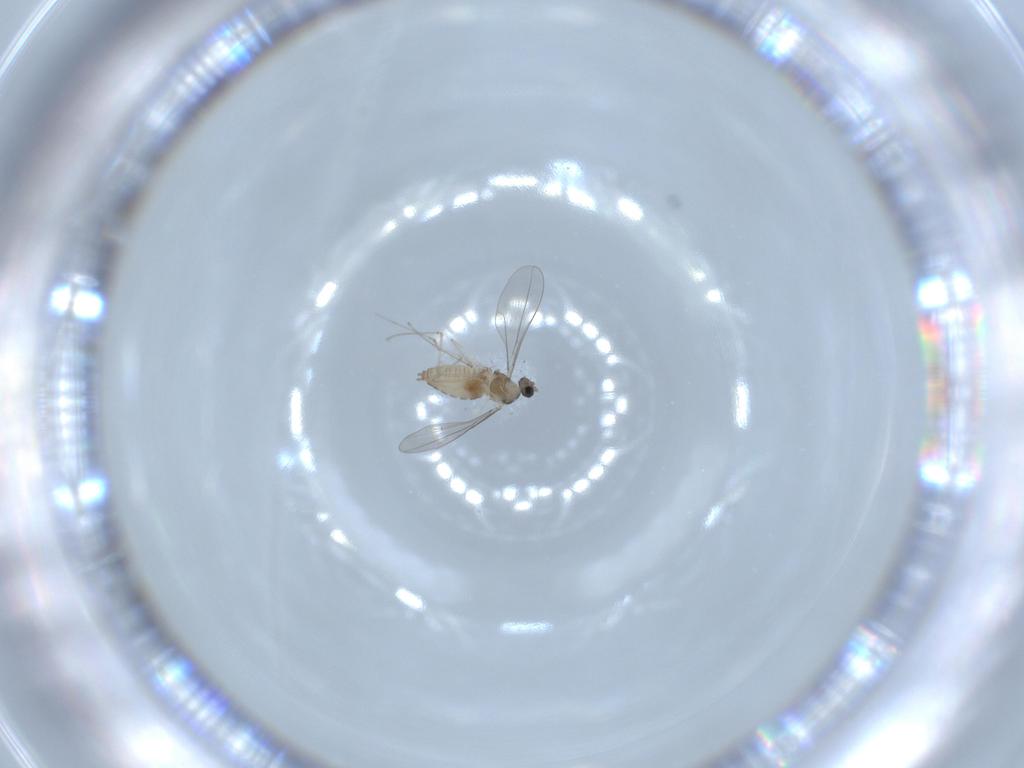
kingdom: Animalia
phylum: Arthropoda
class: Insecta
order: Diptera
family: Cecidomyiidae
